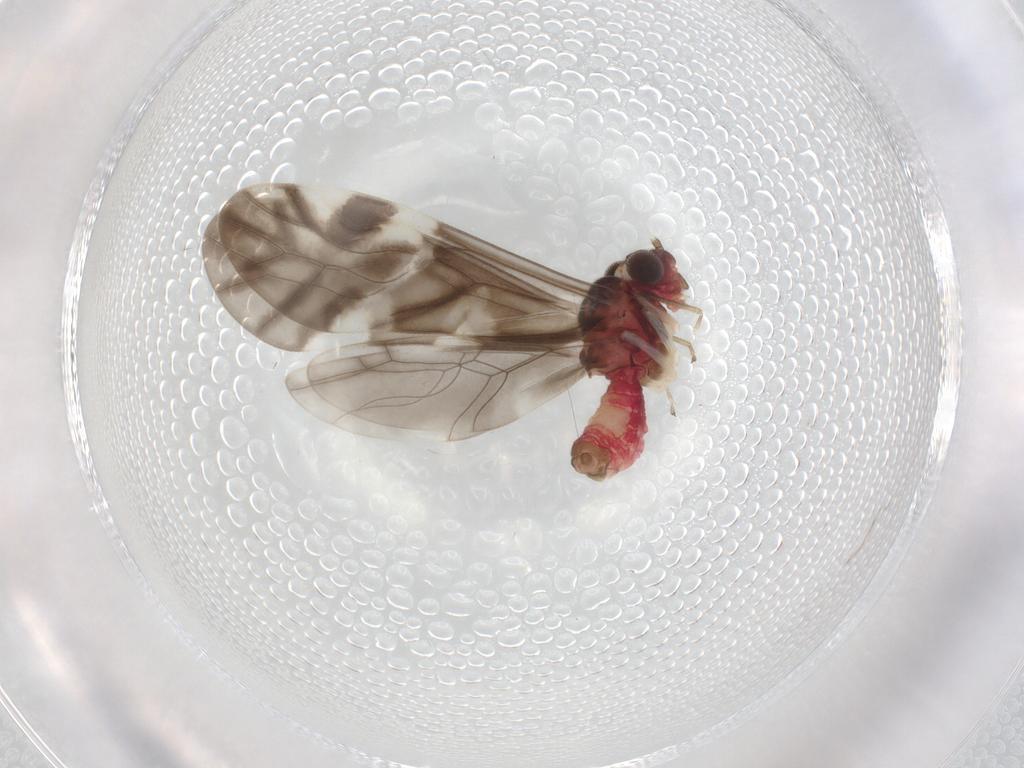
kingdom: Animalia
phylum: Arthropoda
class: Insecta
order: Psocodea
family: Caeciliusidae
